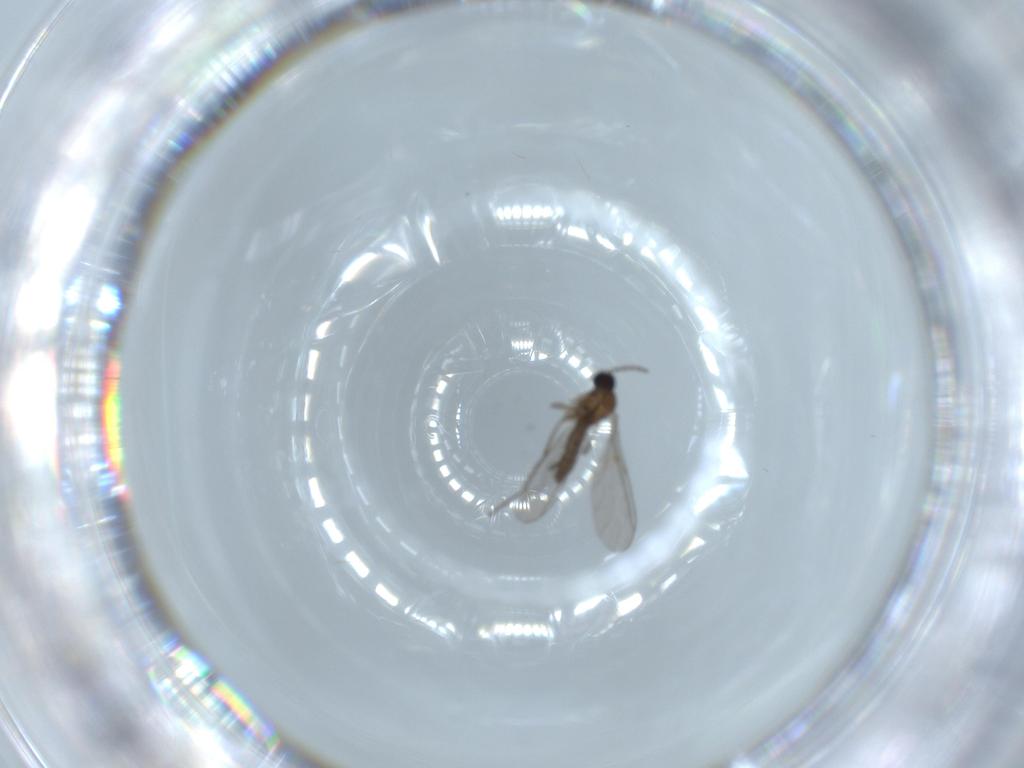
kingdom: Animalia
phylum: Arthropoda
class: Insecta
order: Diptera
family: Sciaridae
